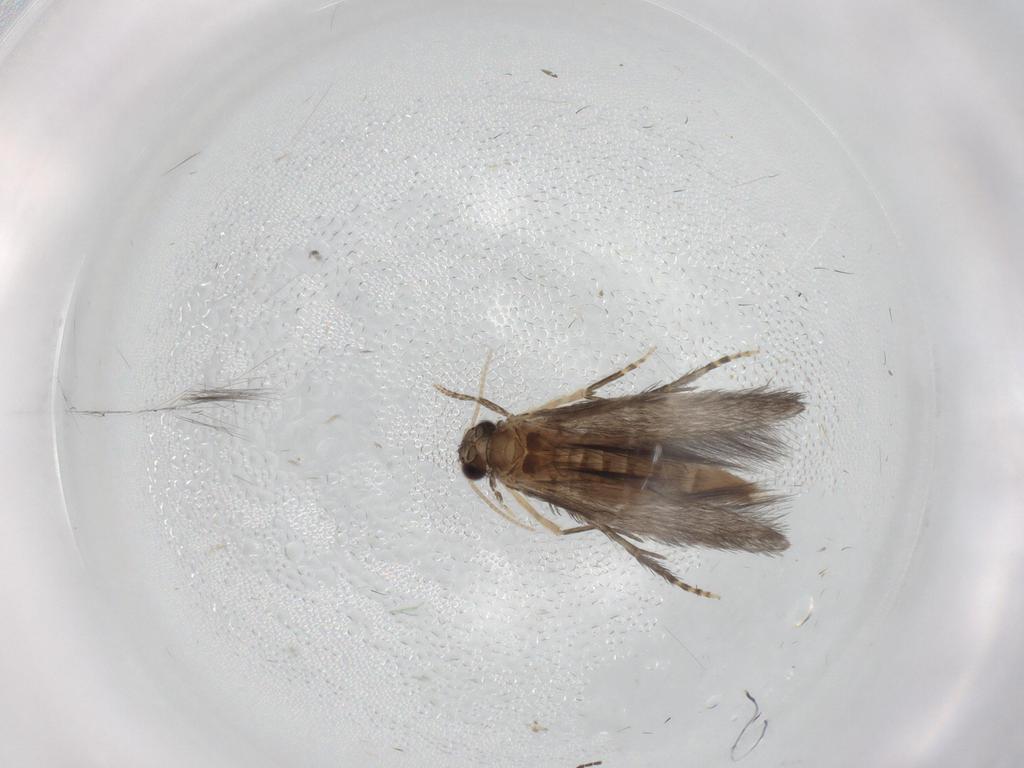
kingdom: Animalia
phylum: Arthropoda
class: Insecta
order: Trichoptera
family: Hydroptilidae
